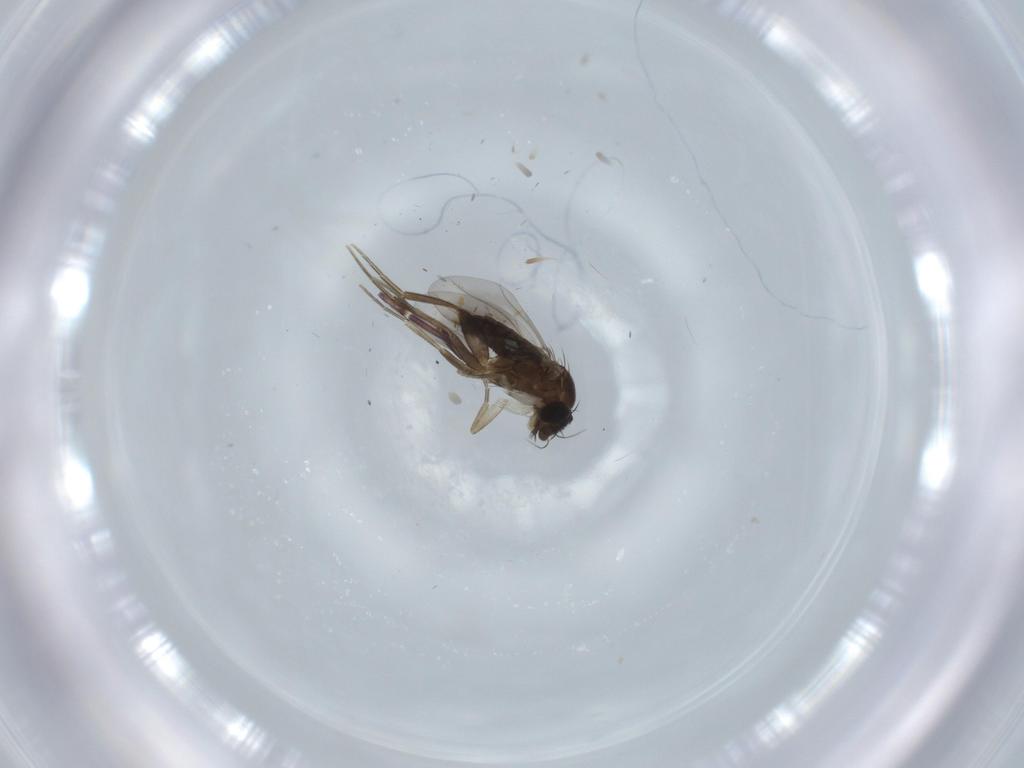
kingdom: Animalia
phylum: Arthropoda
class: Insecta
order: Diptera
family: Phoridae
